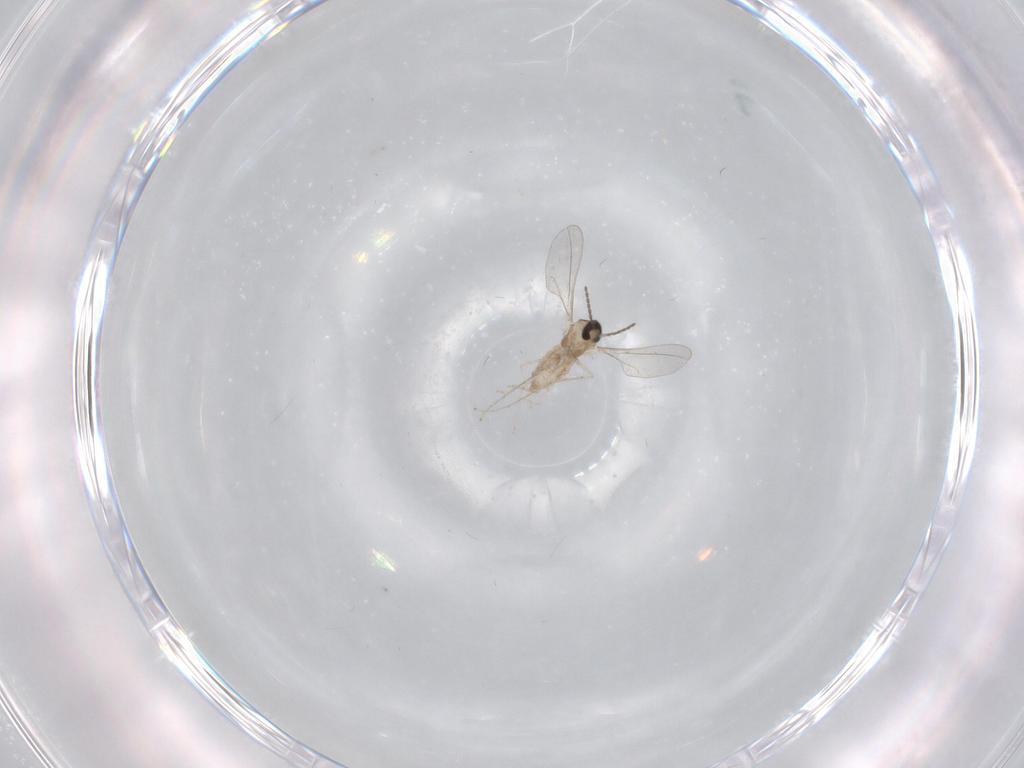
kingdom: Animalia
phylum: Arthropoda
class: Insecta
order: Diptera
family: Cecidomyiidae
